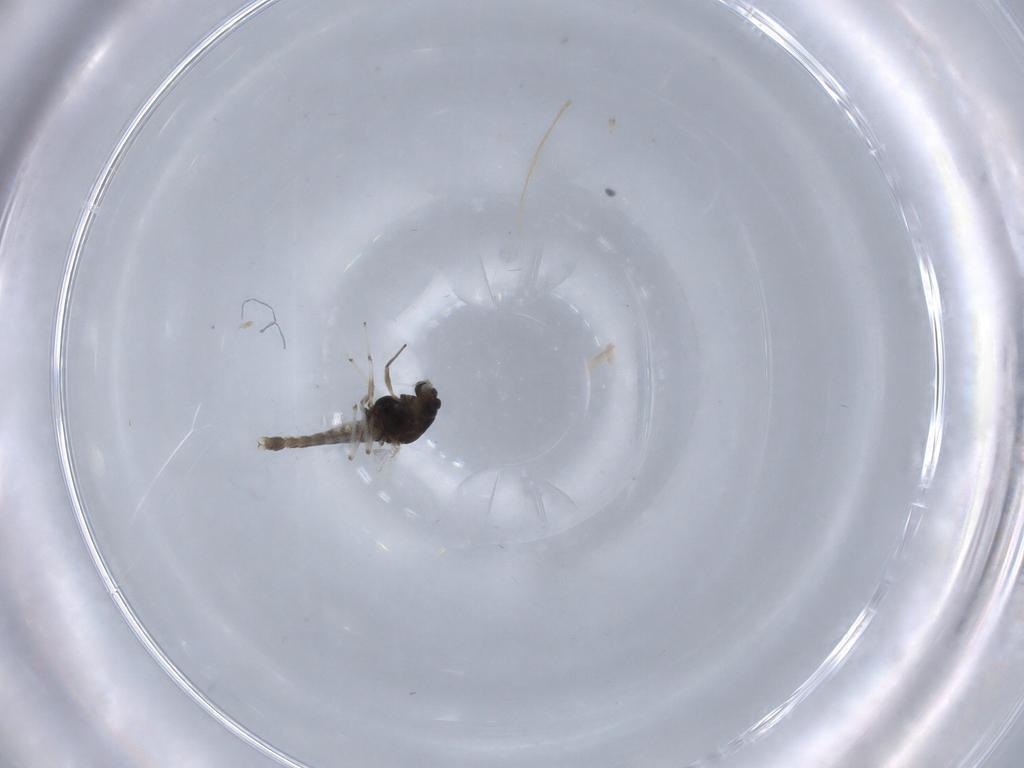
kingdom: Animalia
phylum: Arthropoda
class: Insecta
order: Diptera
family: Chironomidae
